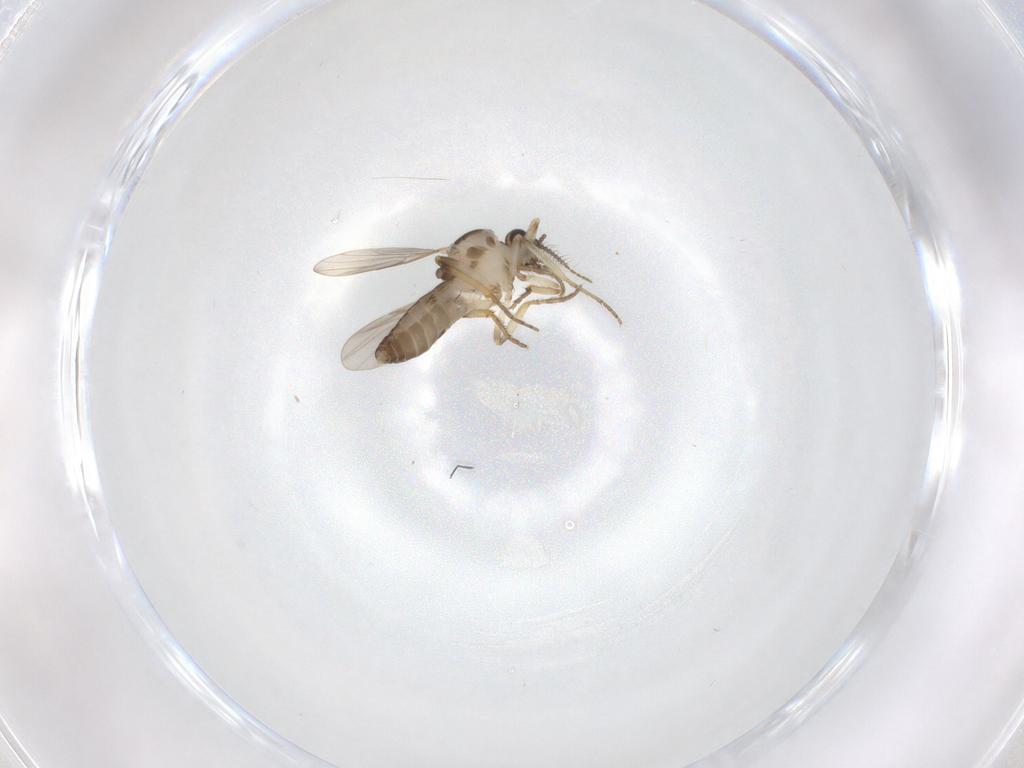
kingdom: Animalia
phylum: Arthropoda
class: Insecta
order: Diptera
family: Phoridae
